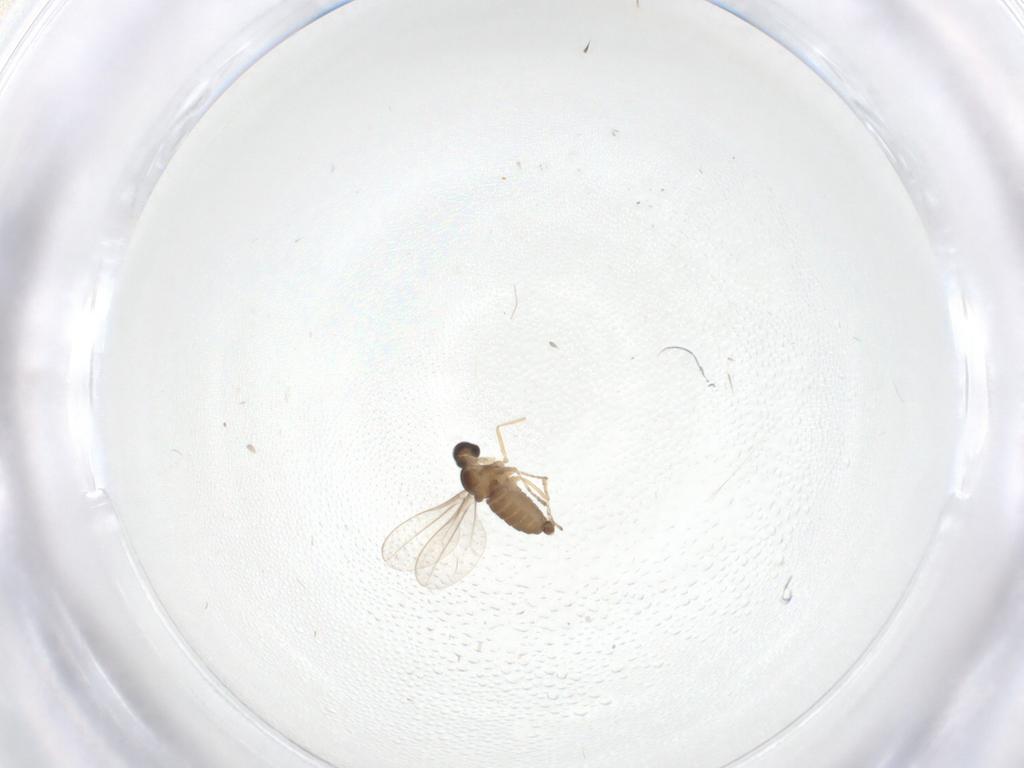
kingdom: Animalia
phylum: Arthropoda
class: Insecta
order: Diptera
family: Cecidomyiidae
